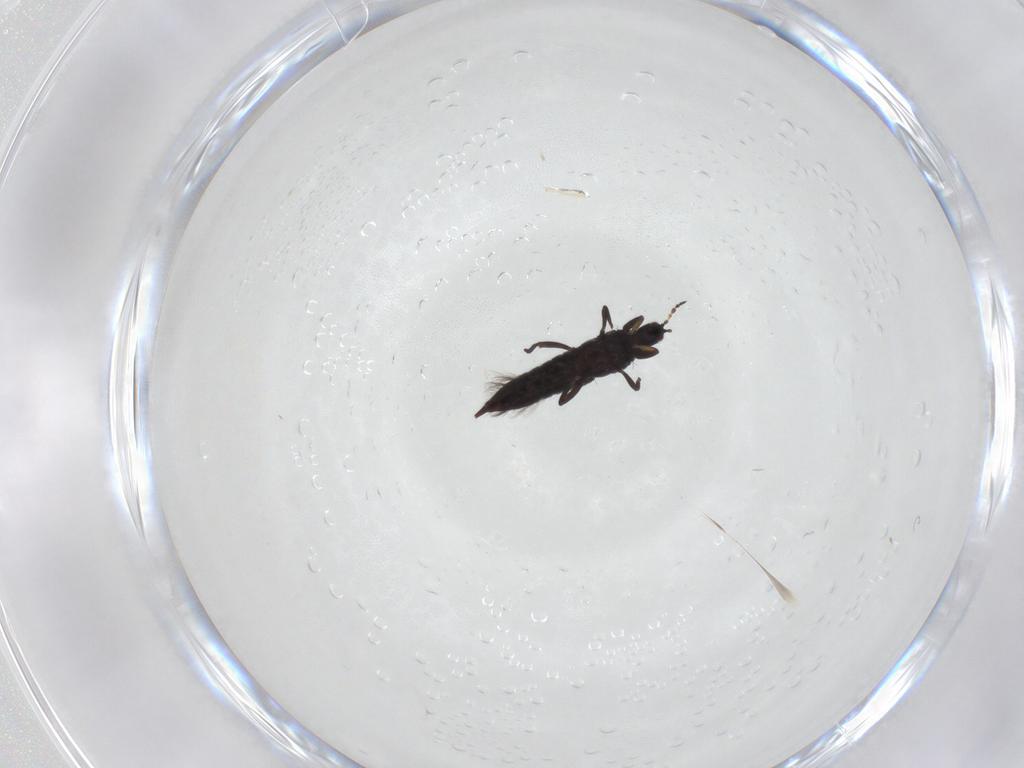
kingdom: Animalia
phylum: Arthropoda
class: Insecta
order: Thysanoptera
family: Phlaeothripidae
